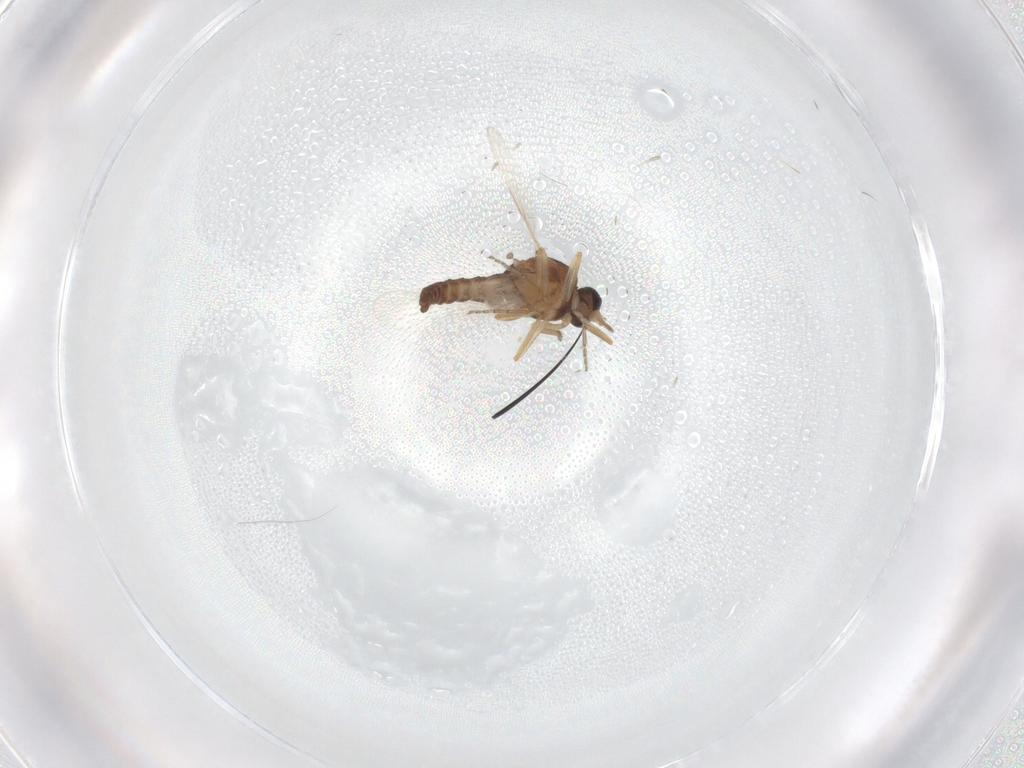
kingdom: Animalia
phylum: Arthropoda
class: Insecta
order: Diptera
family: Ceratopogonidae
